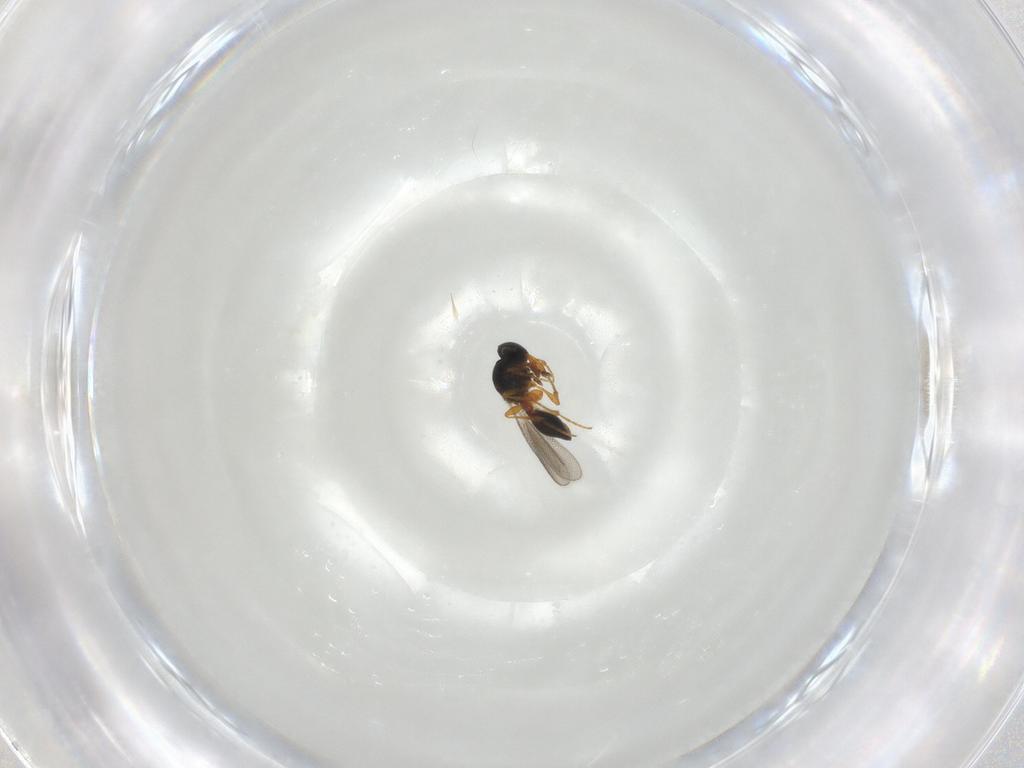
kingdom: Animalia
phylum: Arthropoda
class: Insecta
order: Hymenoptera
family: Platygastridae
